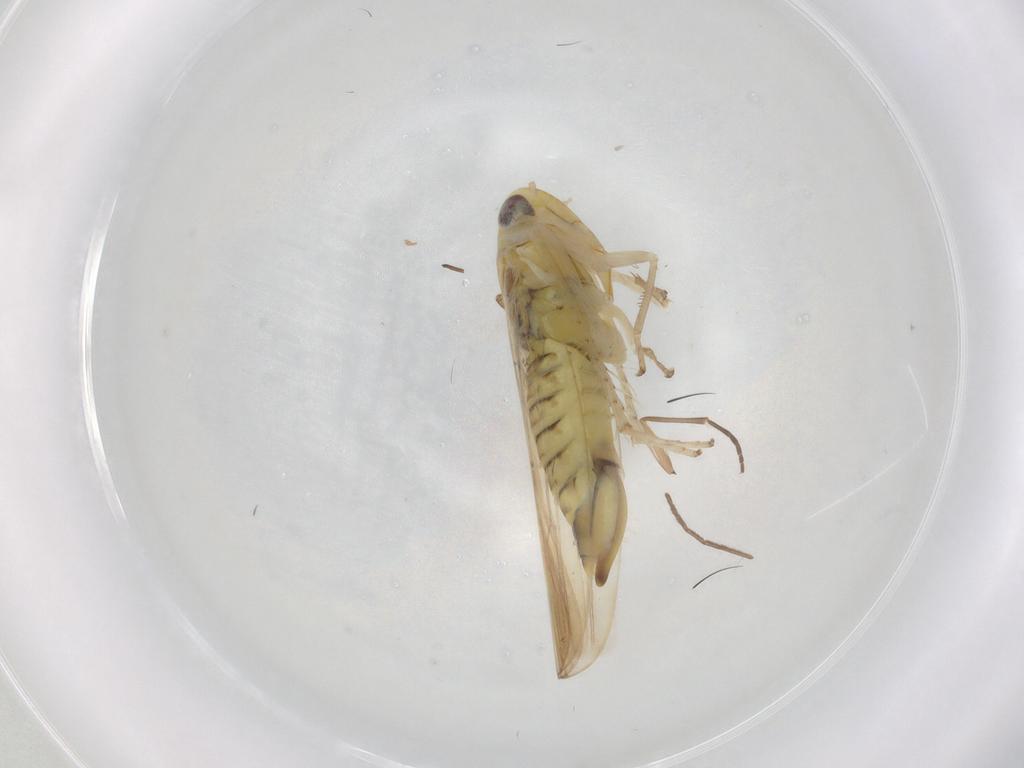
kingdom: Animalia
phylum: Arthropoda
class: Insecta
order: Hemiptera
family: Cicadellidae
